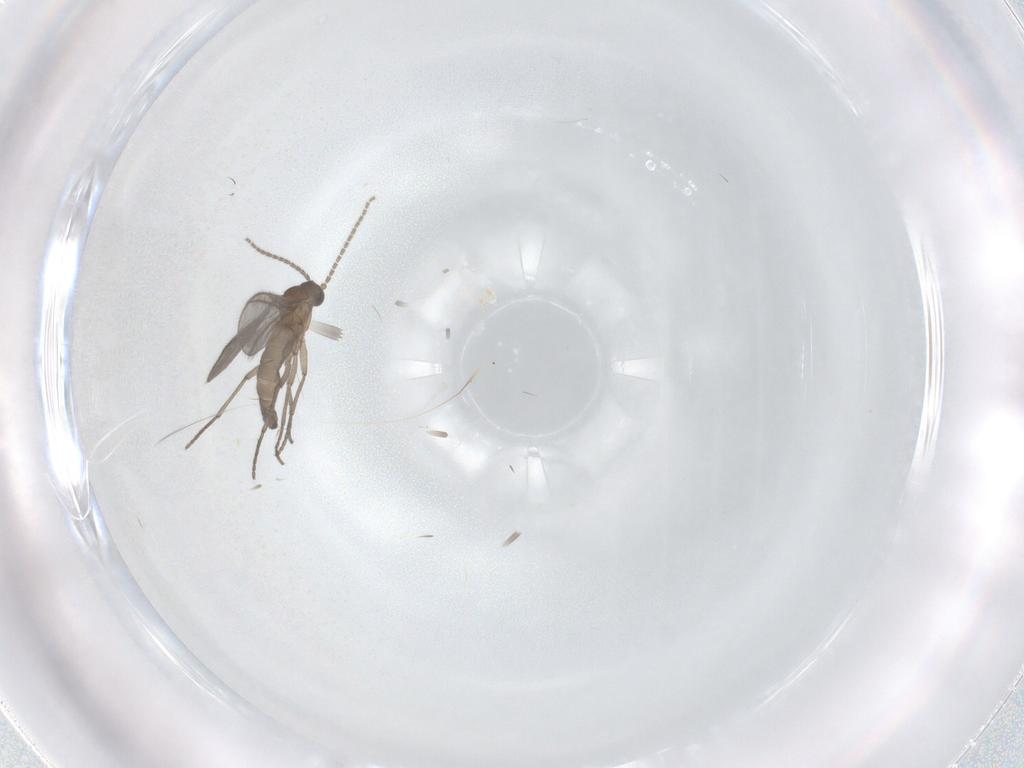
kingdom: Animalia
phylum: Arthropoda
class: Insecta
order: Diptera
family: Sciaridae
